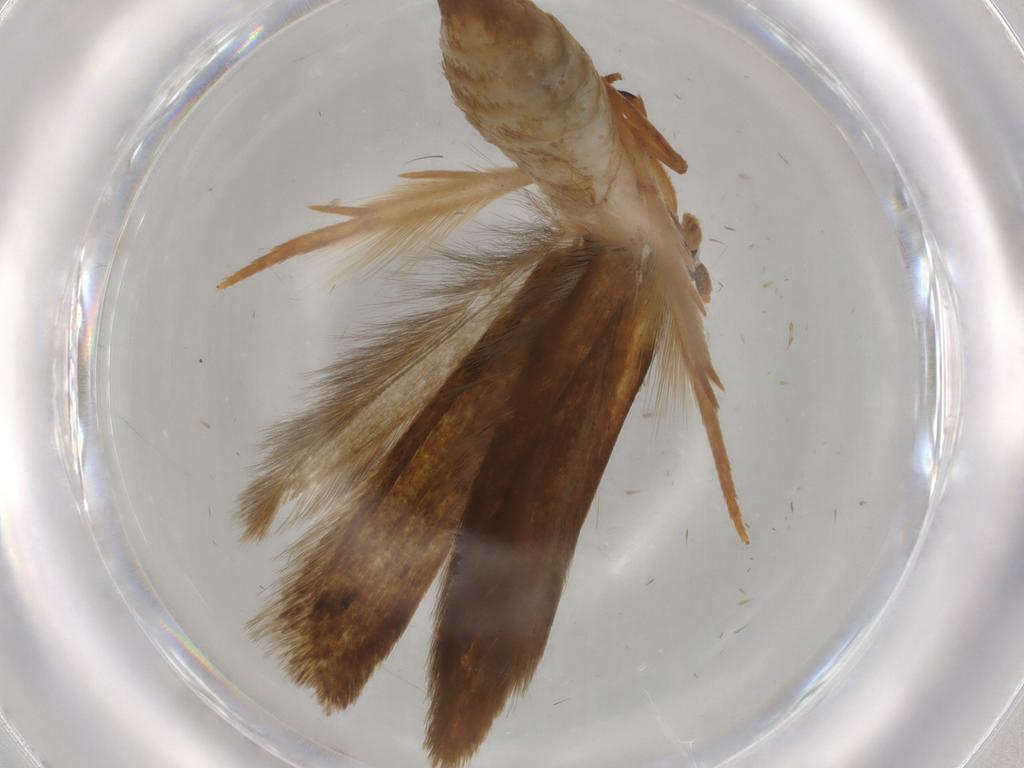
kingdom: Animalia
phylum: Arthropoda
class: Insecta
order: Lepidoptera
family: Tineidae
